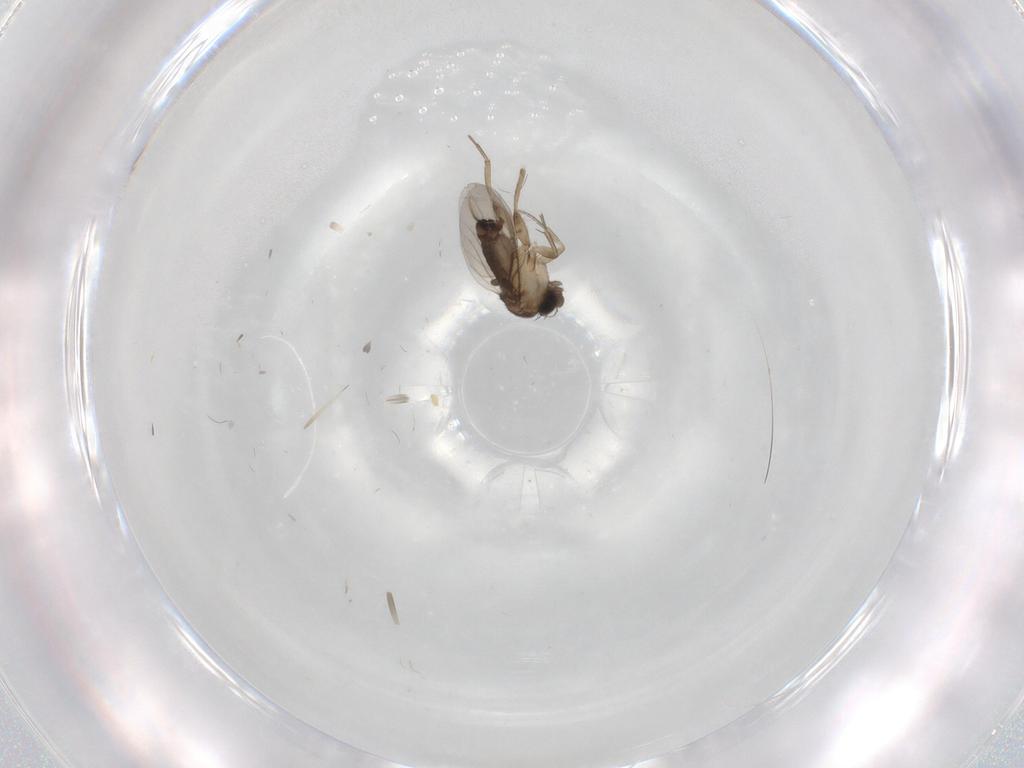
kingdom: Animalia
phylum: Arthropoda
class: Insecta
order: Diptera
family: Phoridae
